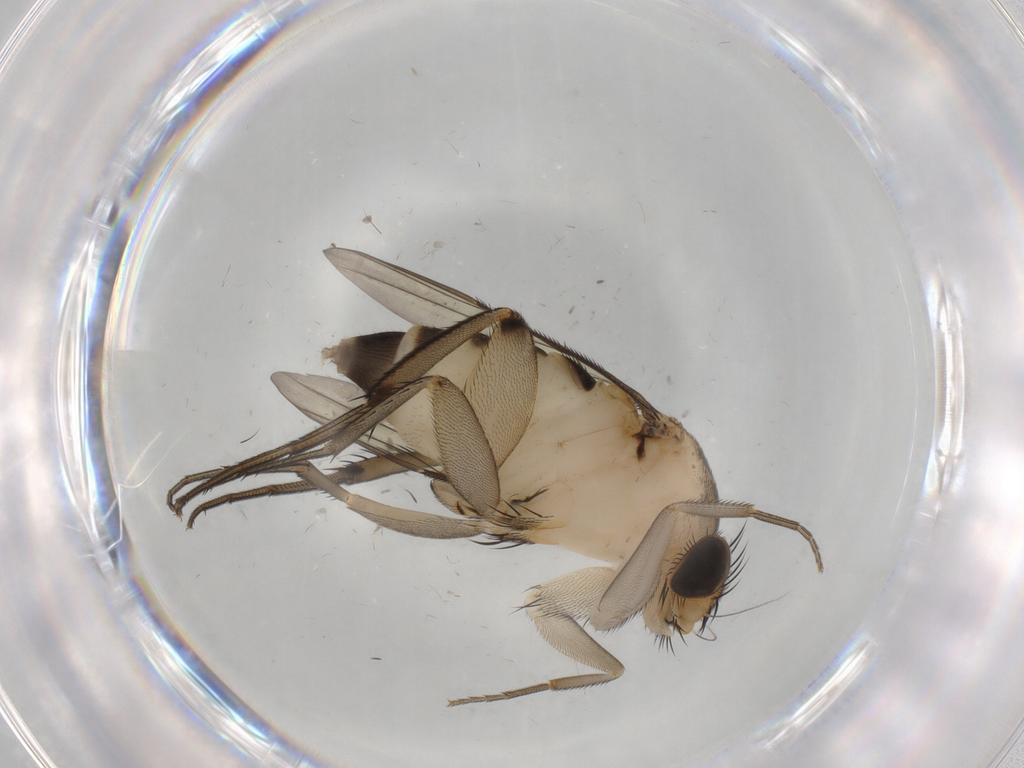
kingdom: Animalia
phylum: Arthropoda
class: Insecta
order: Diptera
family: Phoridae
